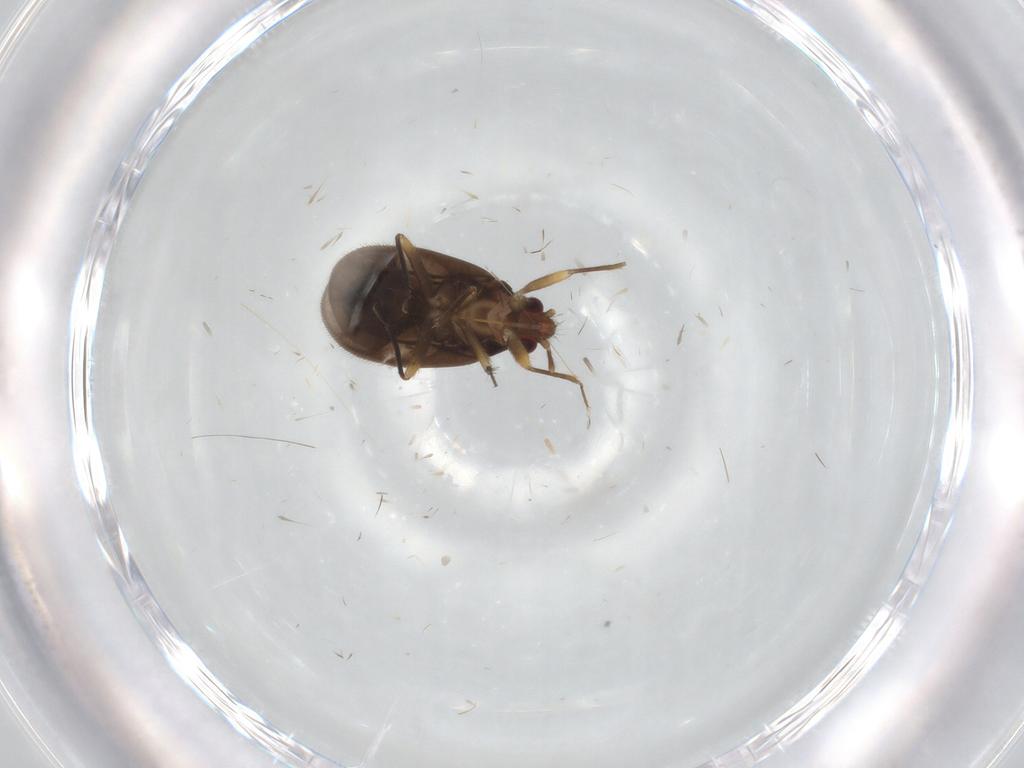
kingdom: Animalia
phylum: Arthropoda
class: Insecta
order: Hemiptera
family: Ceratocombidae
